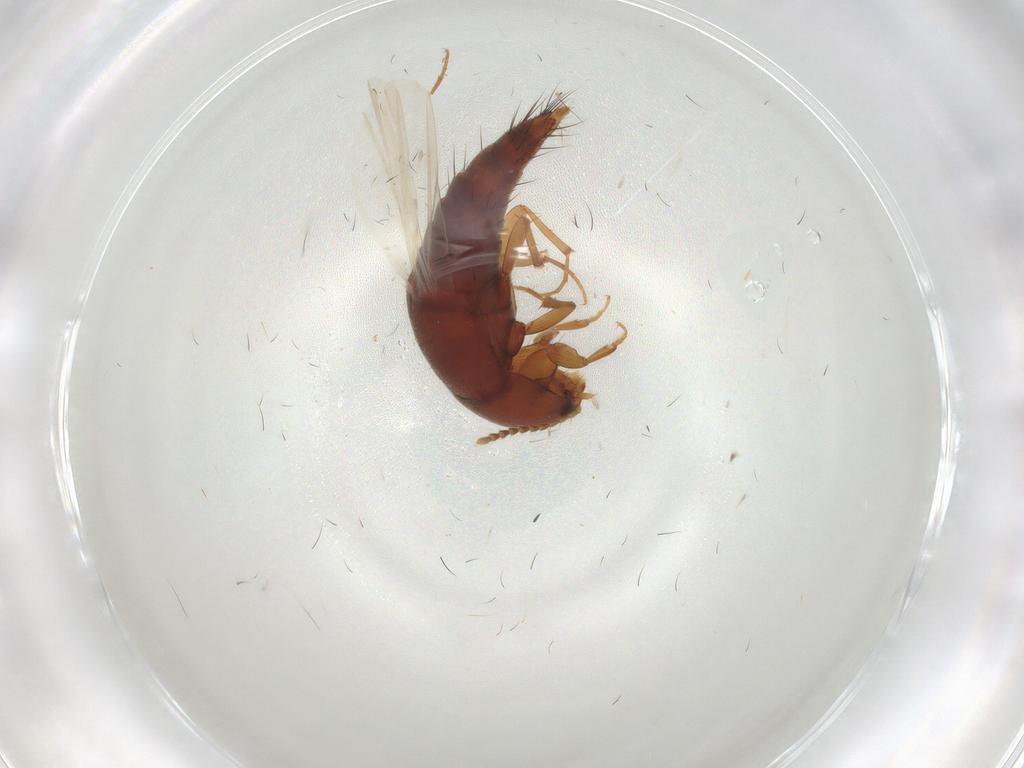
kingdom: Animalia
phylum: Arthropoda
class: Insecta
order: Coleoptera
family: Staphylinidae
